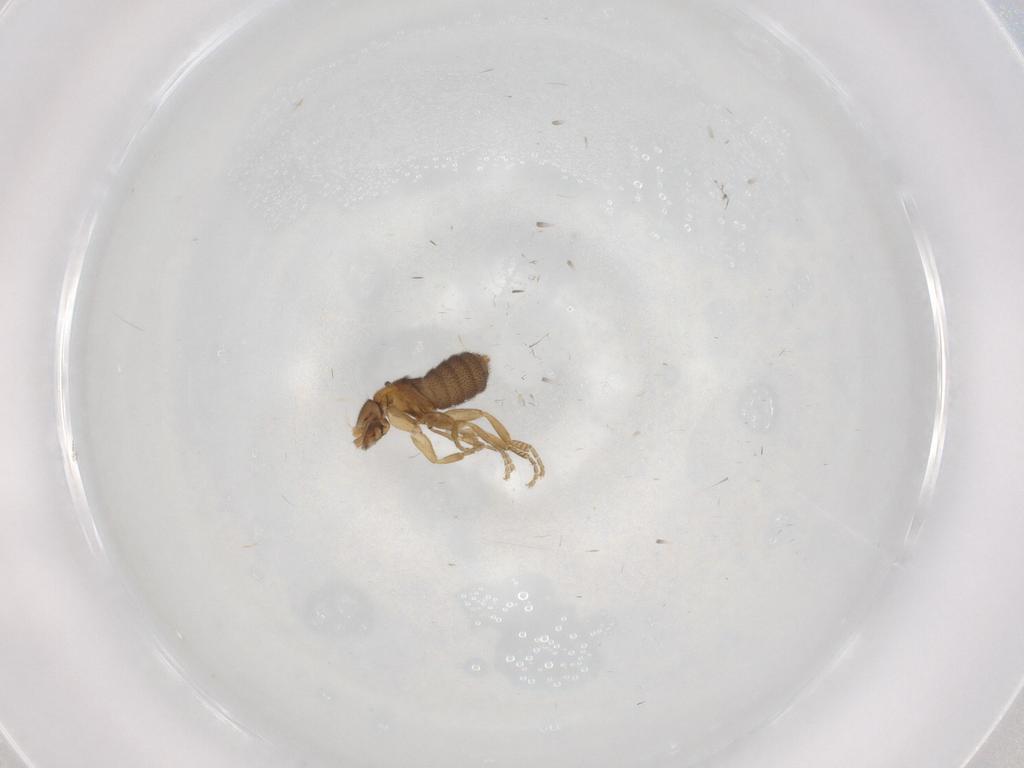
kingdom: Animalia
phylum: Arthropoda
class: Insecta
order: Diptera
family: Phoridae
